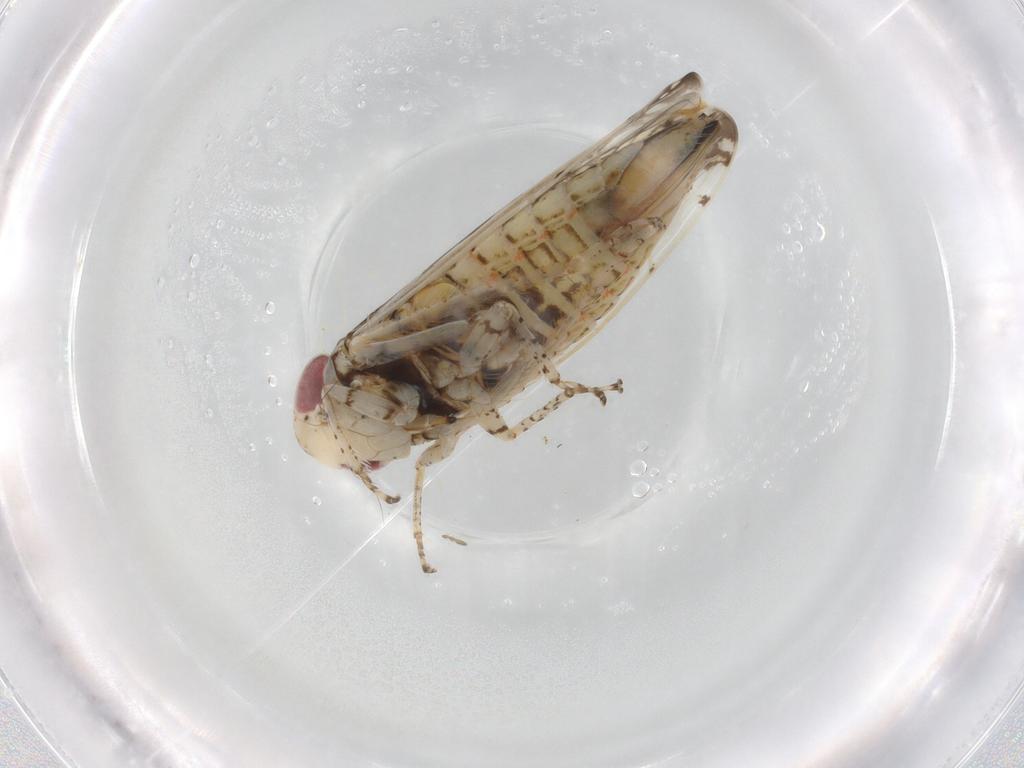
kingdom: Animalia
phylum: Arthropoda
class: Insecta
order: Hemiptera
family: Cicadellidae
